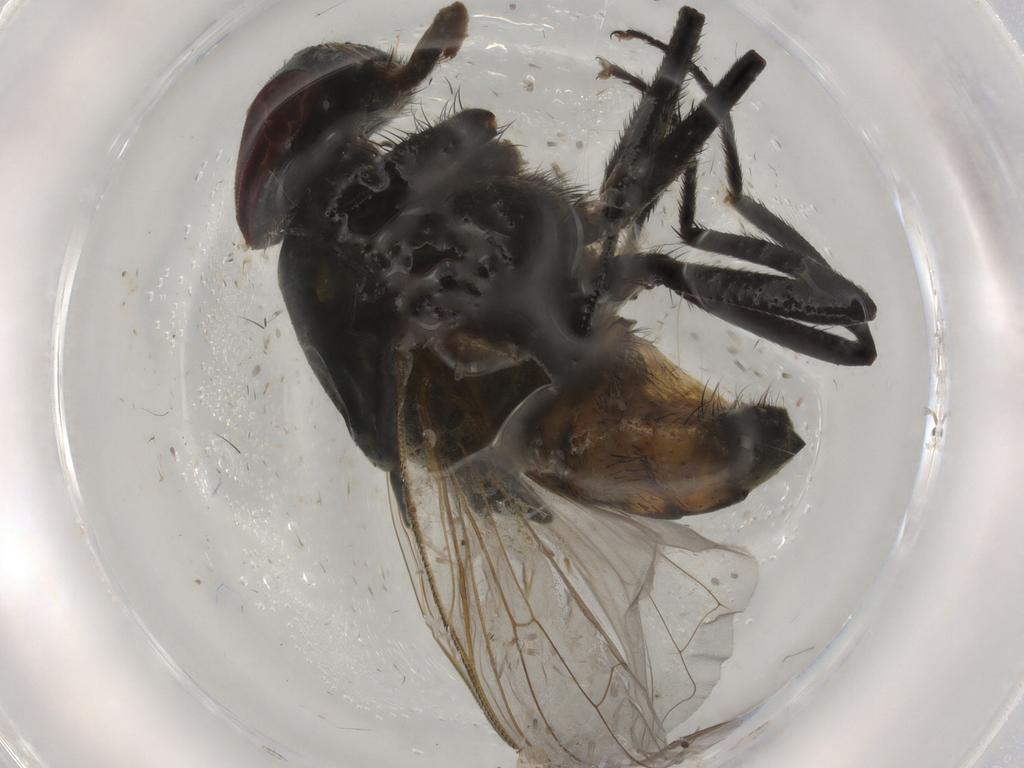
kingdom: Animalia
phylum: Arthropoda
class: Insecta
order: Diptera
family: Muscidae
